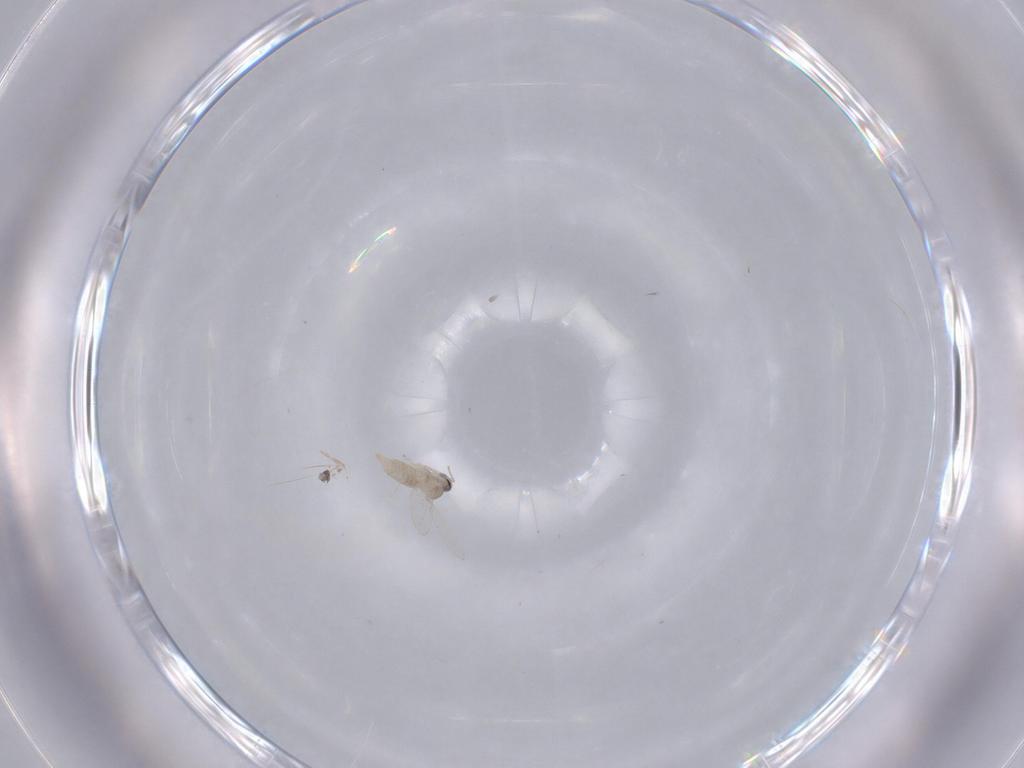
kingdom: Animalia
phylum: Arthropoda
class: Insecta
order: Diptera
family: Cecidomyiidae
